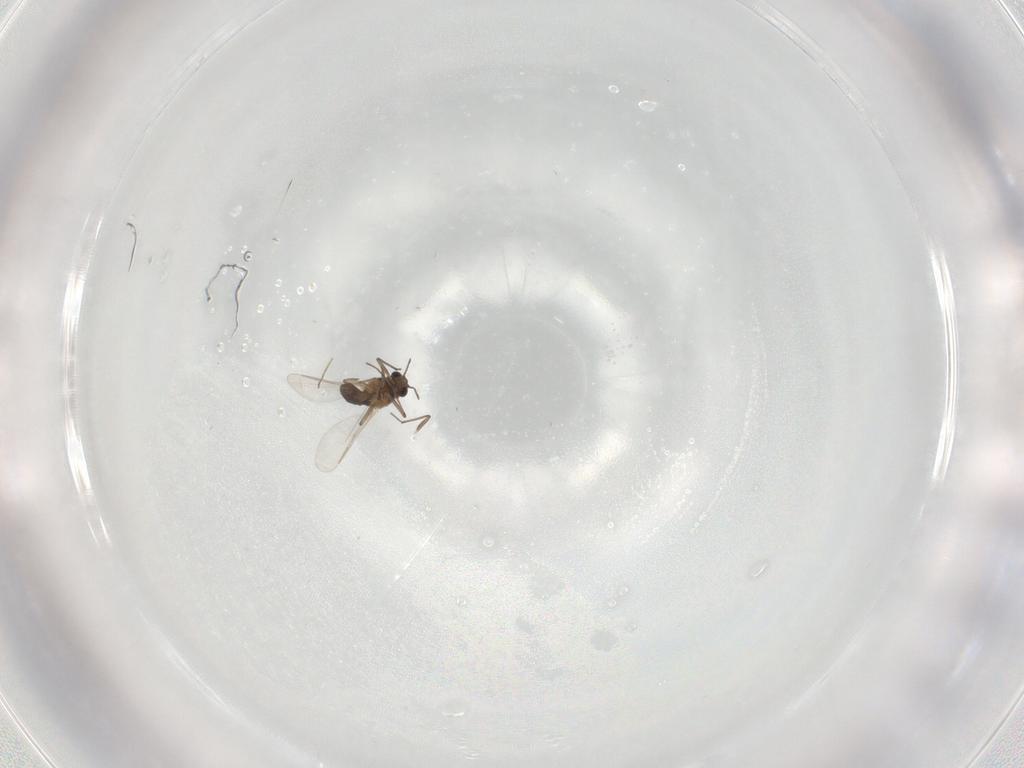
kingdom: Animalia
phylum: Arthropoda
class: Insecta
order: Diptera
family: Chironomidae
